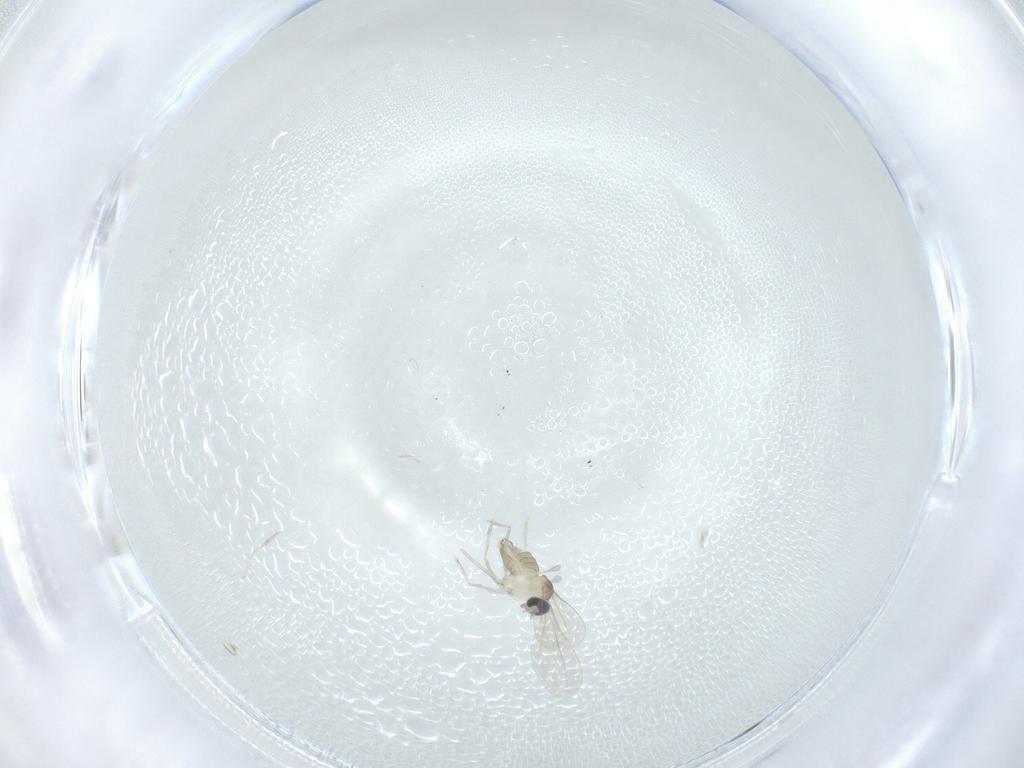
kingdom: Animalia
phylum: Arthropoda
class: Insecta
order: Diptera
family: Cecidomyiidae
